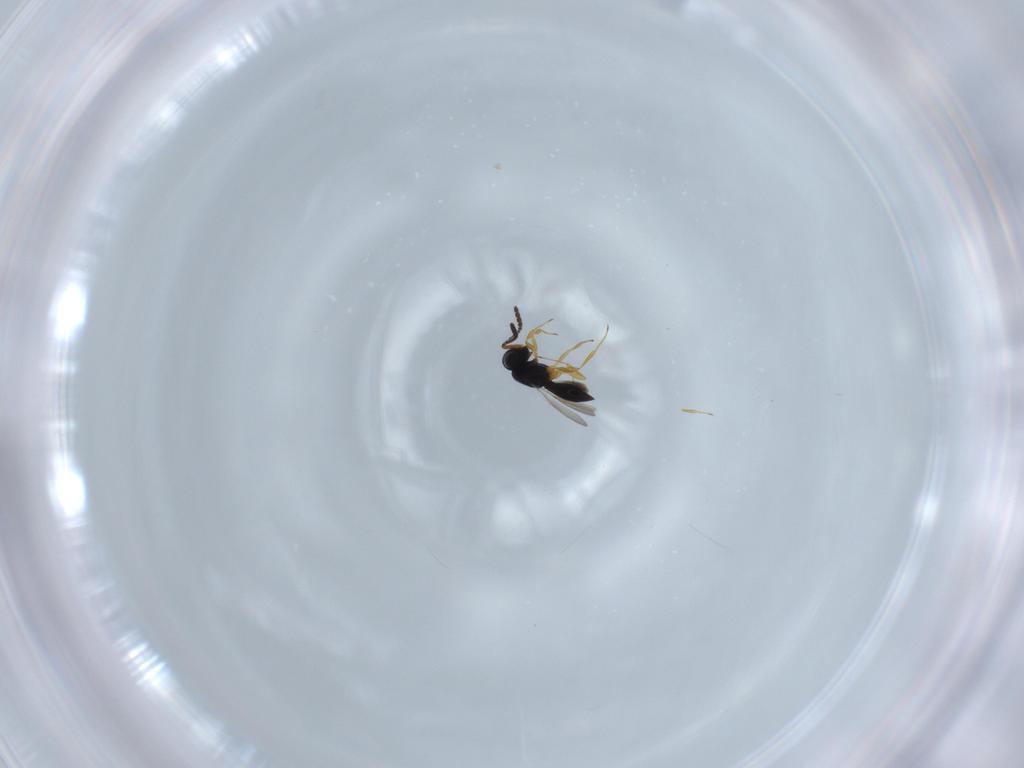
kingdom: Animalia
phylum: Arthropoda
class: Insecta
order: Hymenoptera
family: Scelionidae
